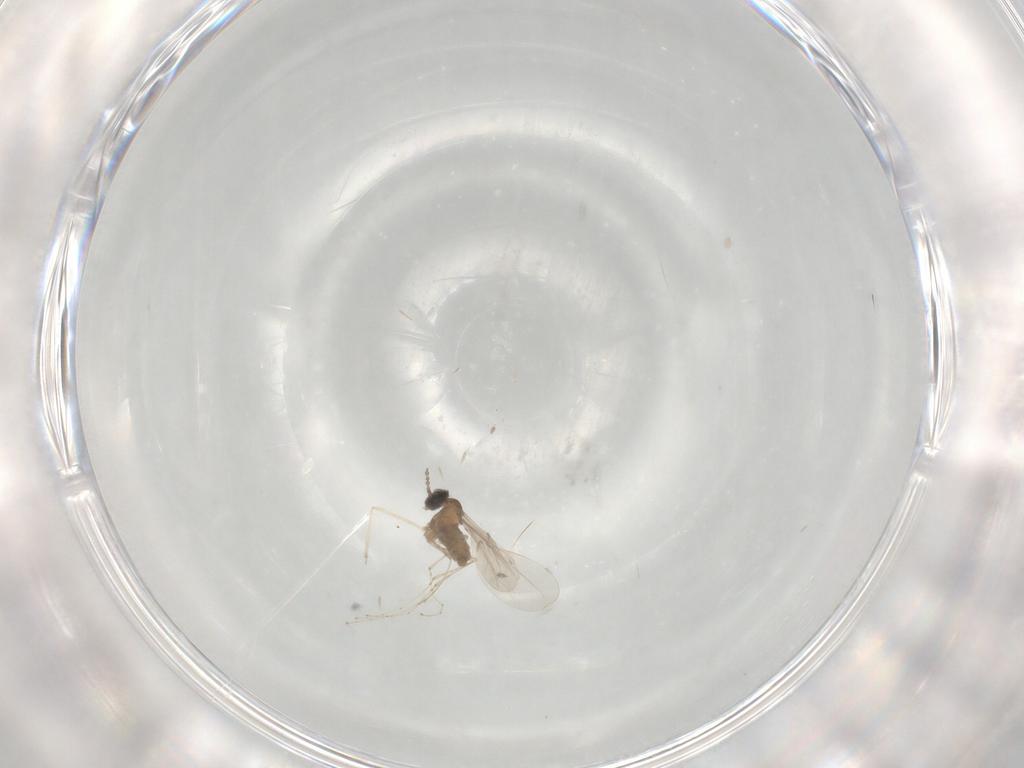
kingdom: Animalia
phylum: Arthropoda
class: Insecta
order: Diptera
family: Cecidomyiidae
